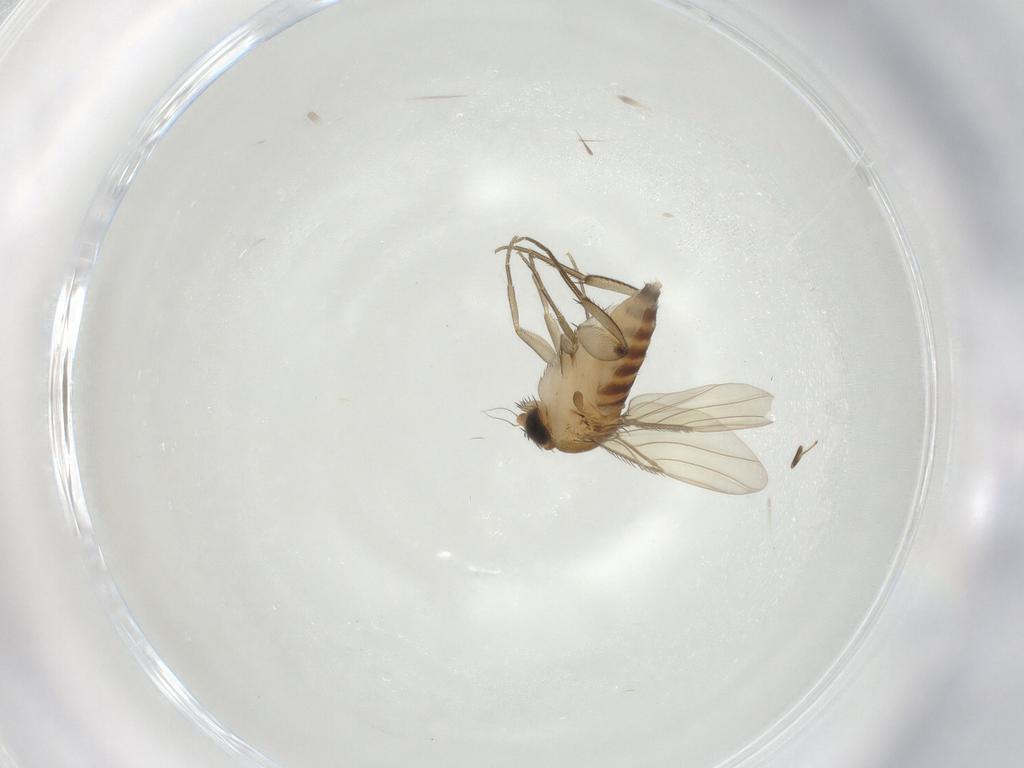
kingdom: Animalia
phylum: Arthropoda
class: Insecta
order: Diptera
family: Phoridae
